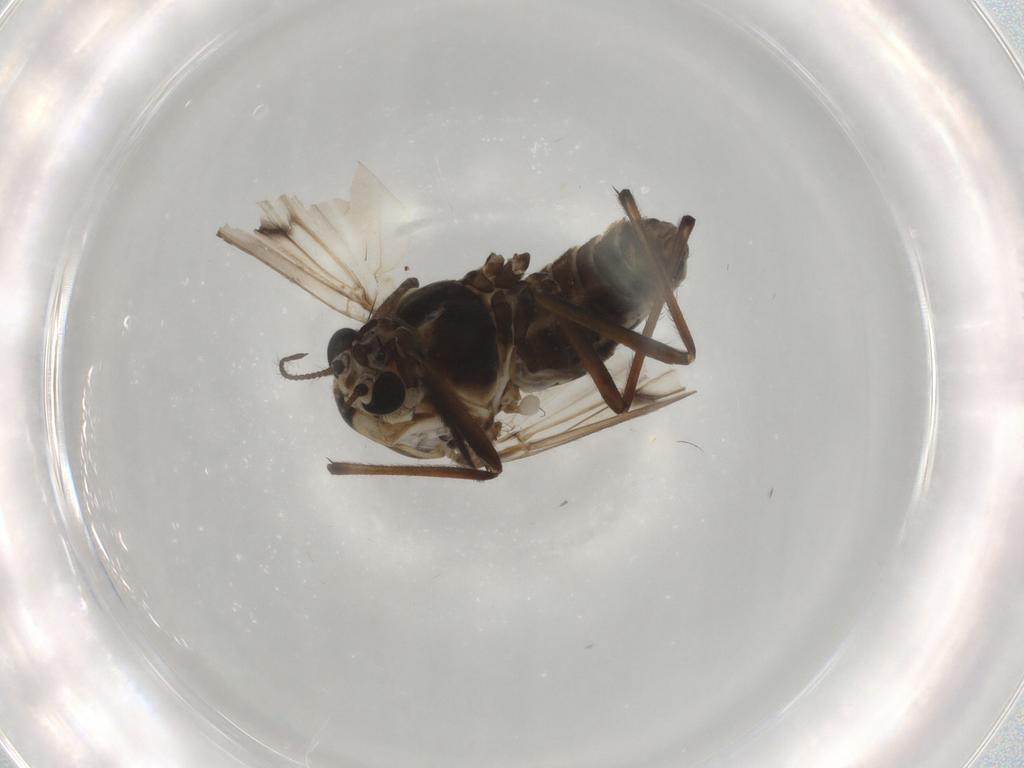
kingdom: Animalia
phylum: Arthropoda
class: Insecta
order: Diptera
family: Chironomidae
